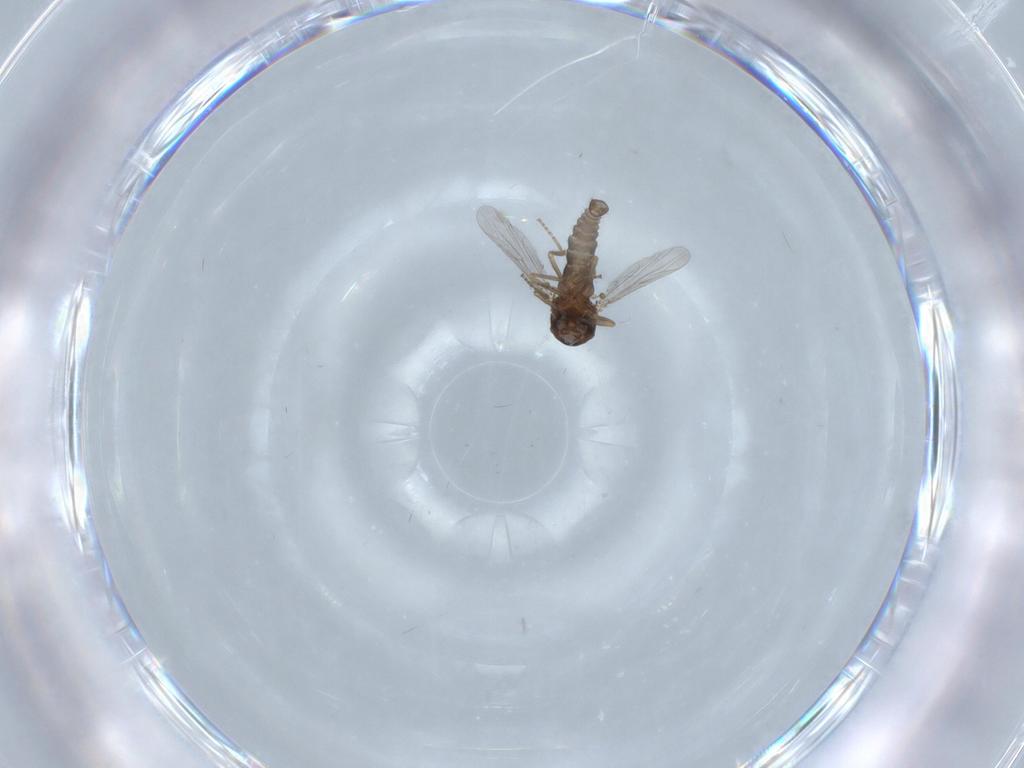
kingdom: Animalia
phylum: Arthropoda
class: Insecta
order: Diptera
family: Ceratopogonidae
